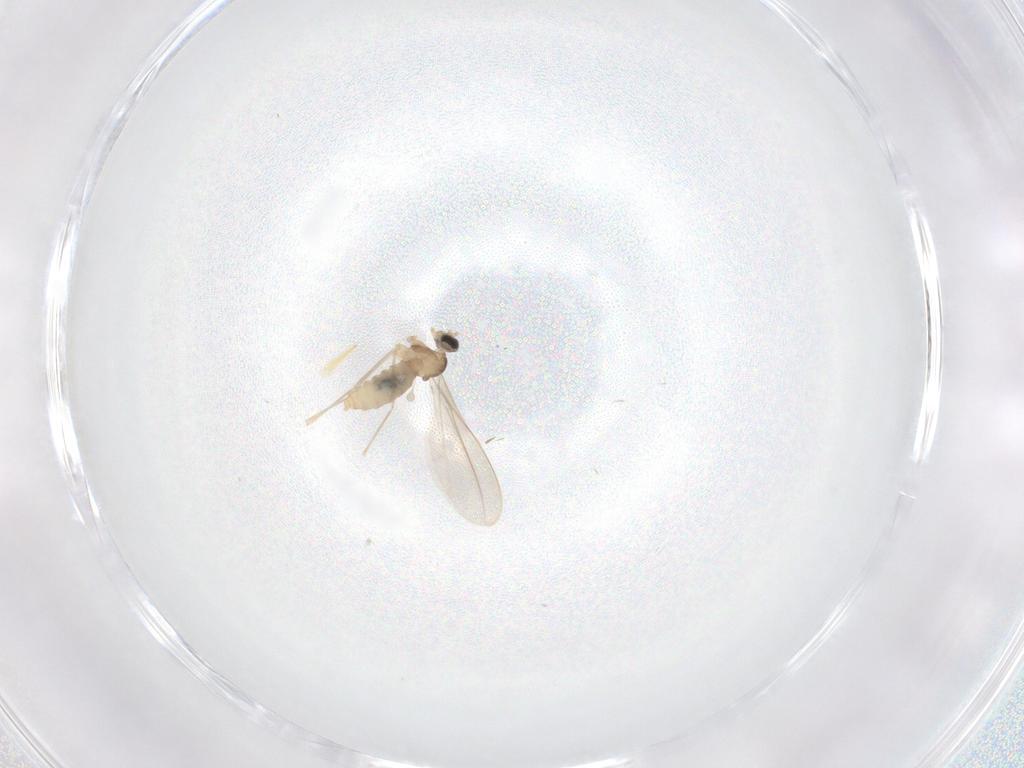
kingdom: Animalia
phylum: Arthropoda
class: Insecta
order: Diptera
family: Cecidomyiidae
